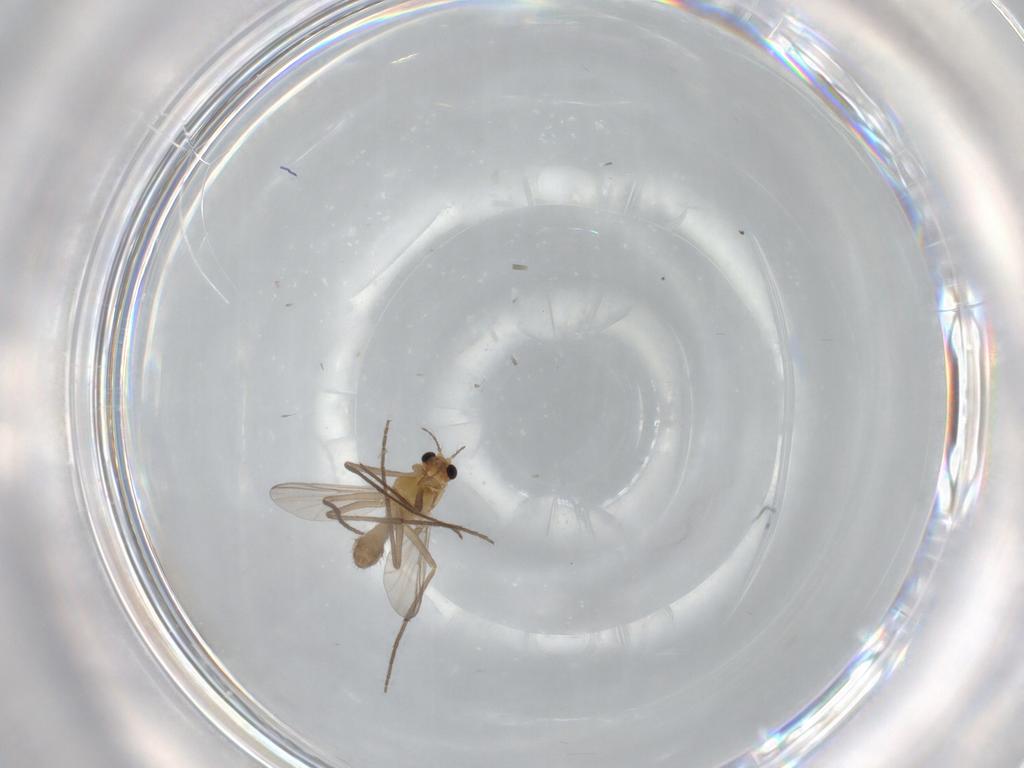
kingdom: Animalia
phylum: Arthropoda
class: Insecta
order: Diptera
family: Chironomidae
